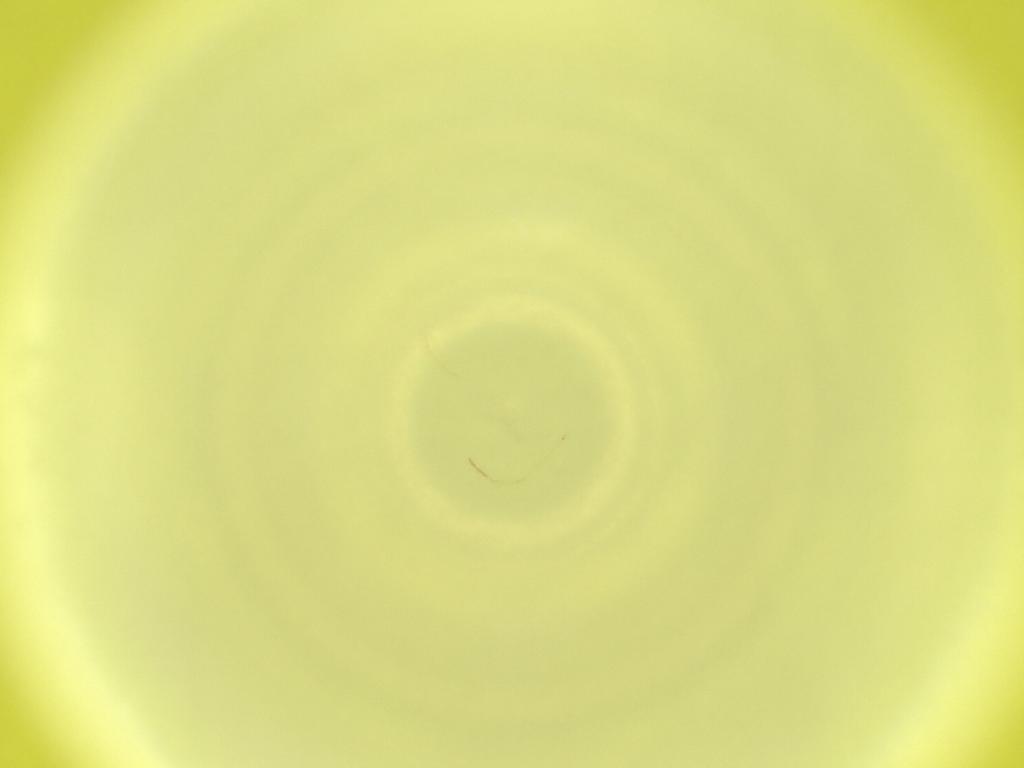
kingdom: Animalia
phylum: Arthropoda
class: Insecta
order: Diptera
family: Cecidomyiidae
